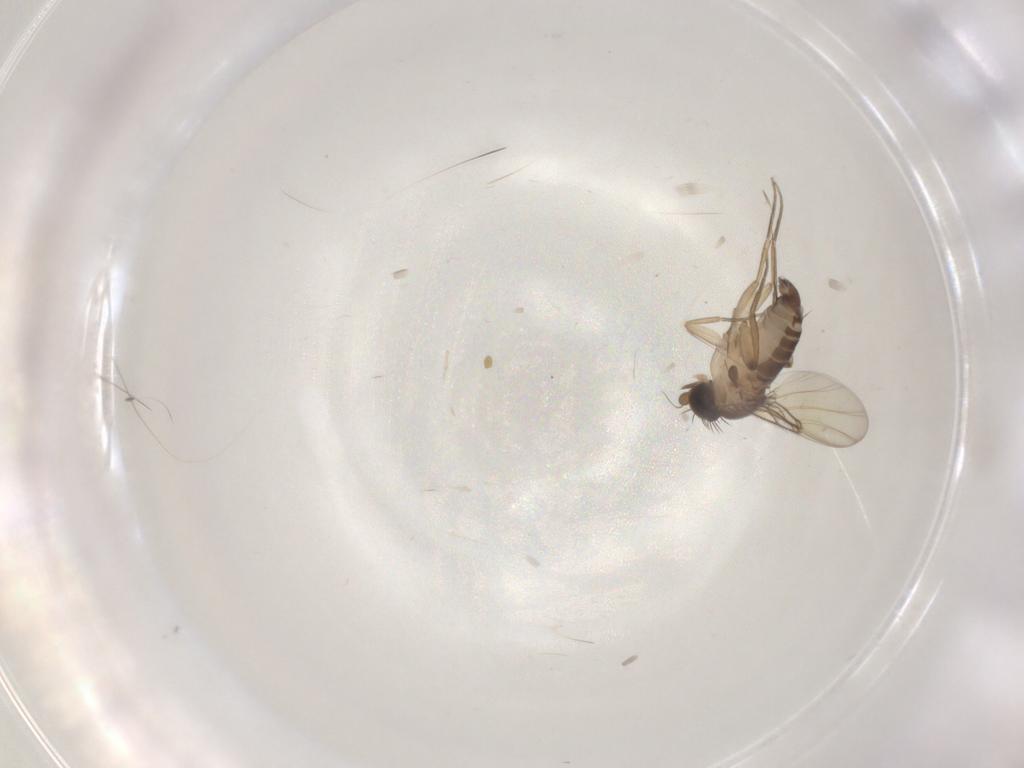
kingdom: Animalia
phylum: Arthropoda
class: Insecta
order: Diptera
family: Phoridae
